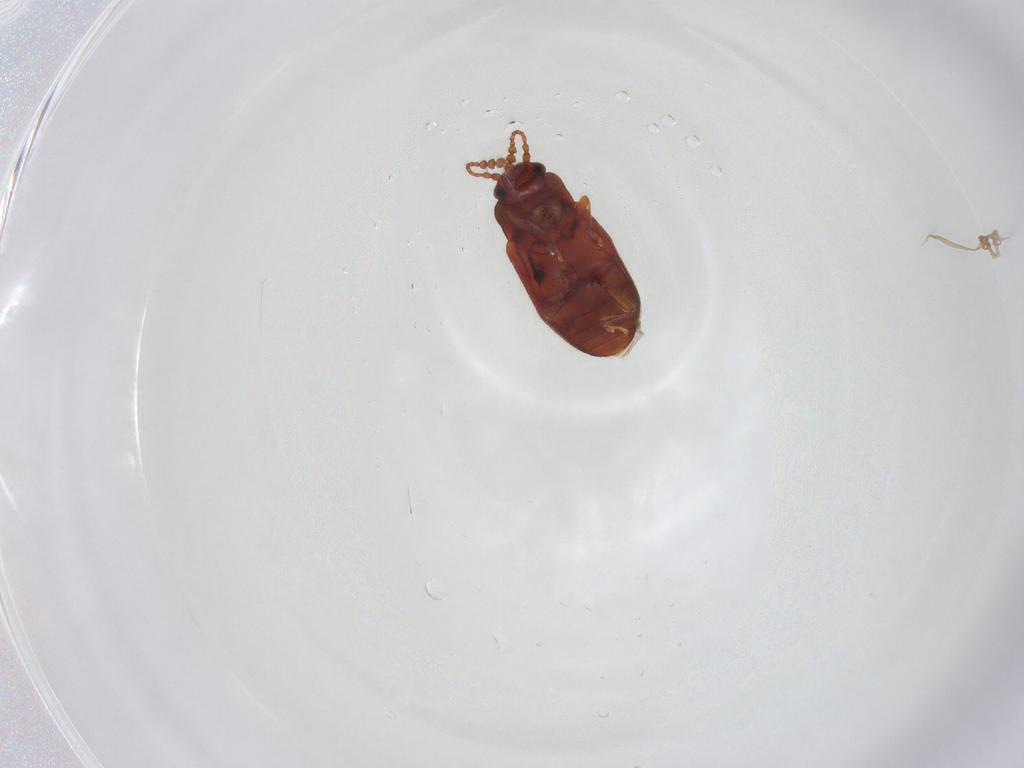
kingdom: Animalia
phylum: Arthropoda
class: Insecta
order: Coleoptera
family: Cryptophagidae
